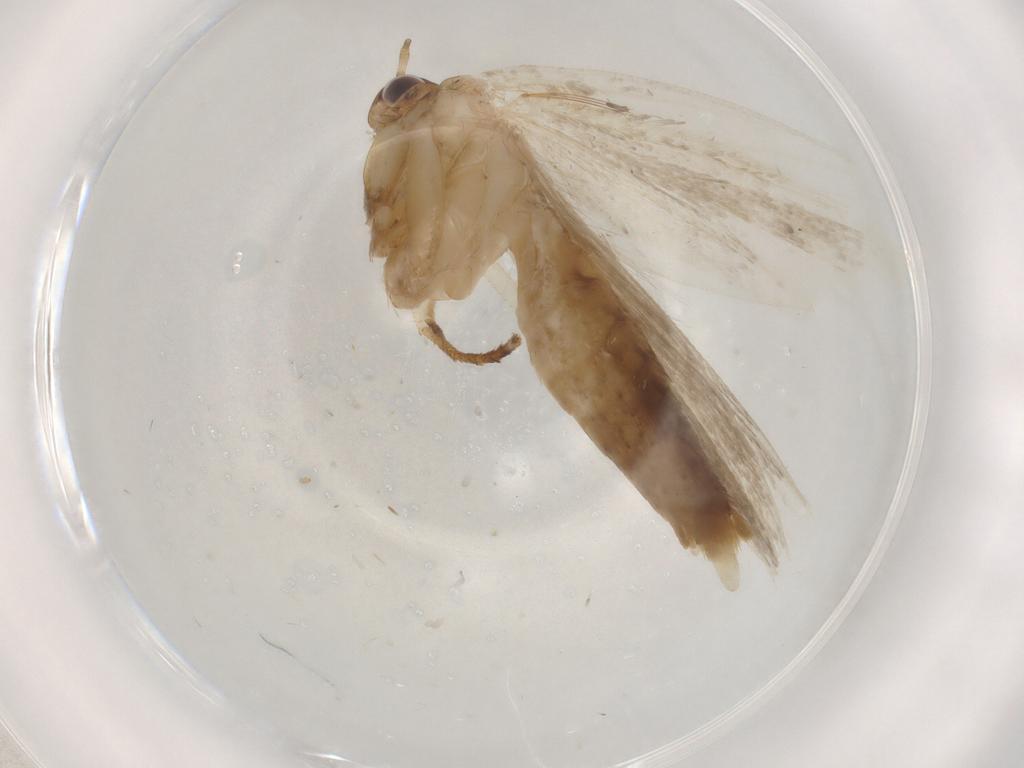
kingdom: Animalia
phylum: Arthropoda
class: Insecta
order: Lepidoptera
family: Gelechiidae
